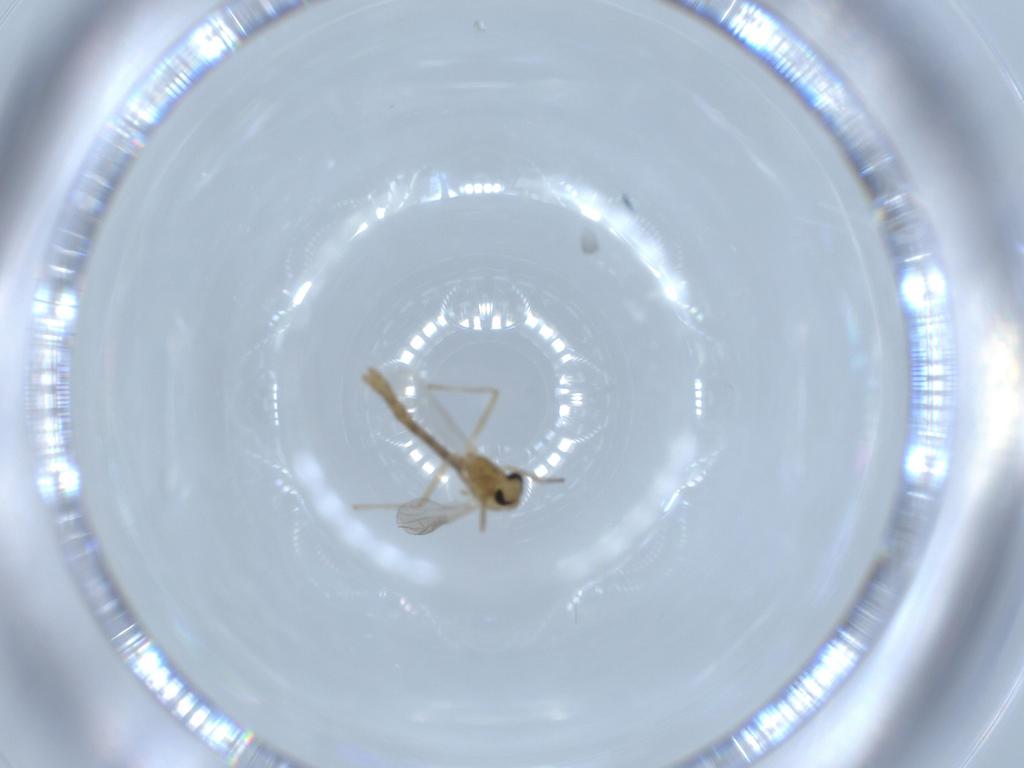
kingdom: Animalia
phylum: Arthropoda
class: Insecta
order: Diptera
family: Chironomidae
